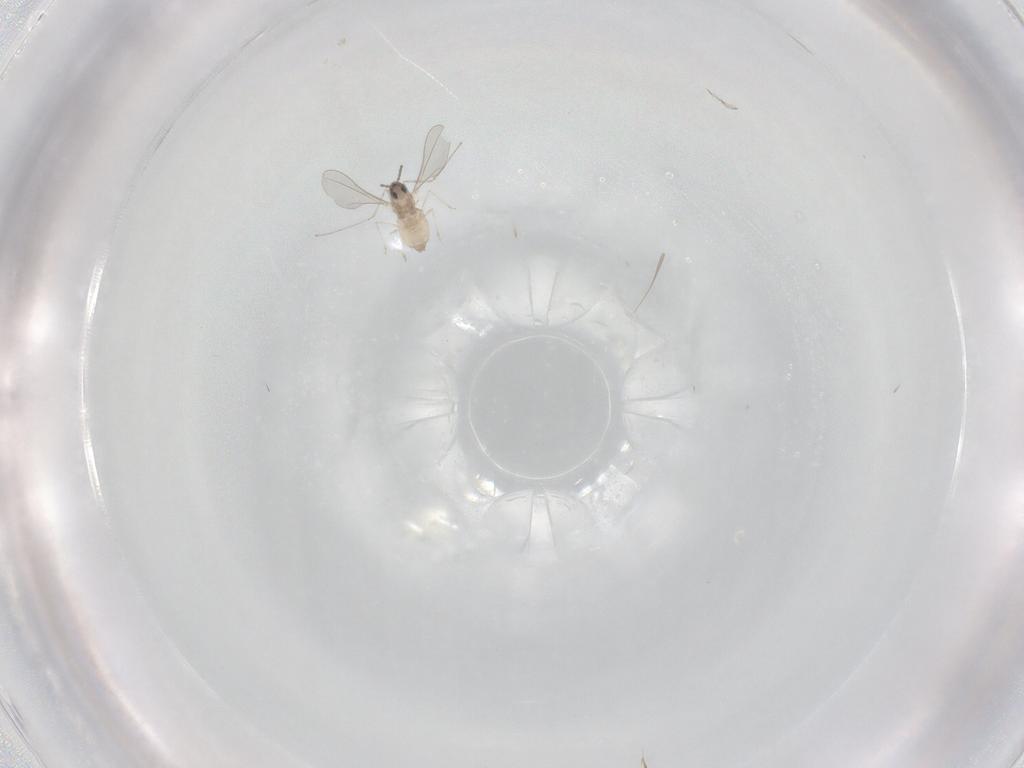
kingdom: Animalia
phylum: Arthropoda
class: Insecta
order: Diptera
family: Cecidomyiidae
